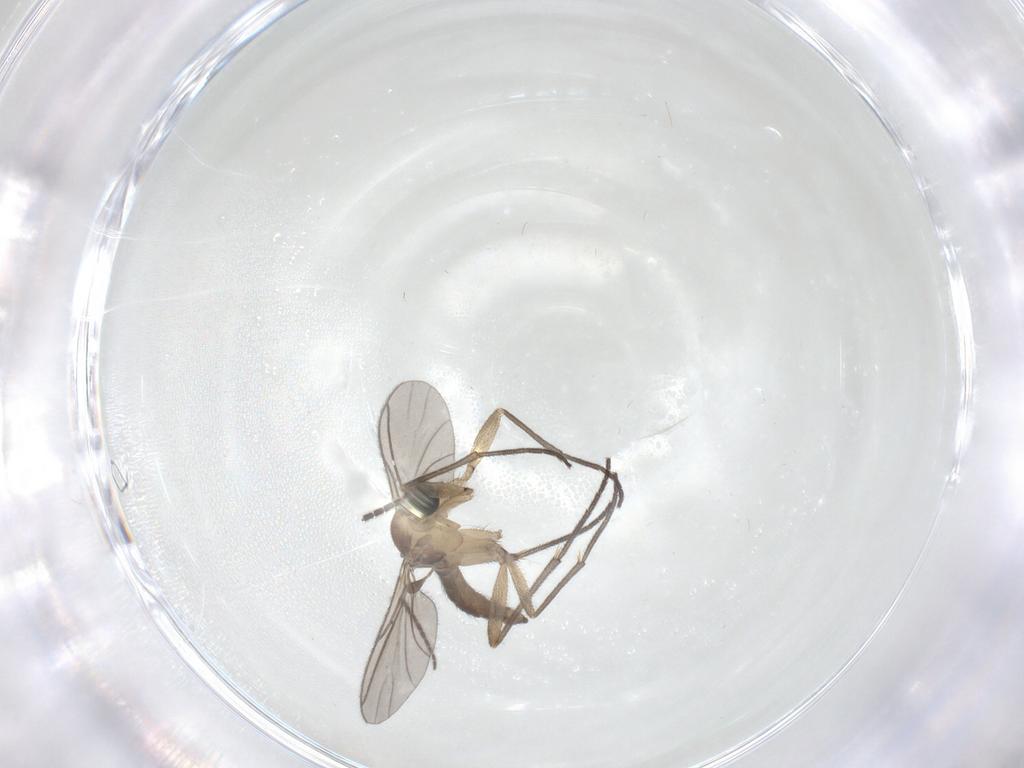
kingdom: Animalia
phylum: Arthropoda
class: Insecta
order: Diptera
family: Sciaridae
